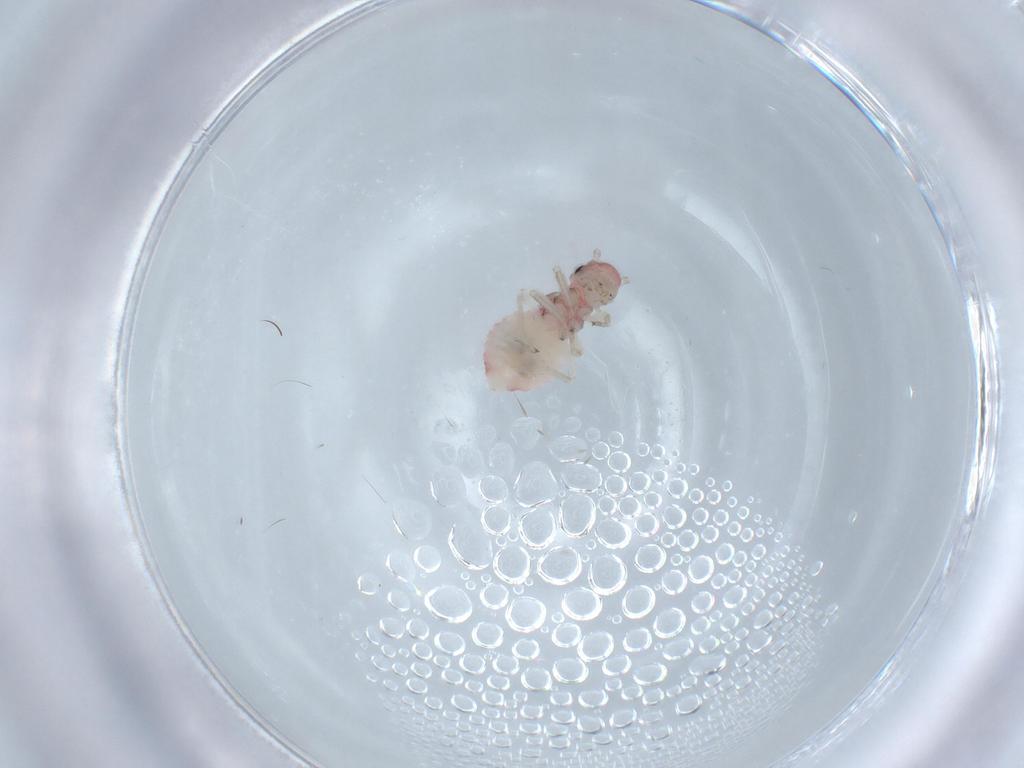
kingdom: Animalia
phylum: Arthropoda
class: Insecta
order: Psocodea
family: Amphipsocidae
